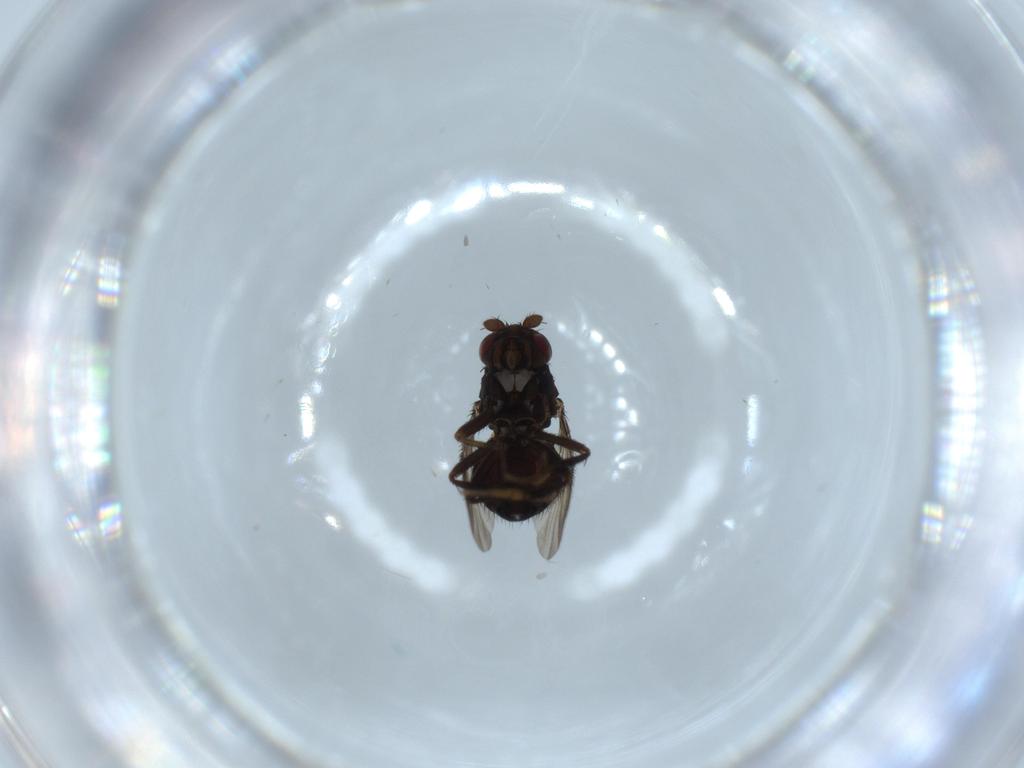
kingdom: Animalia
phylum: Arthropoda
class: Insecta
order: Diptera
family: Sphaeroceridae
